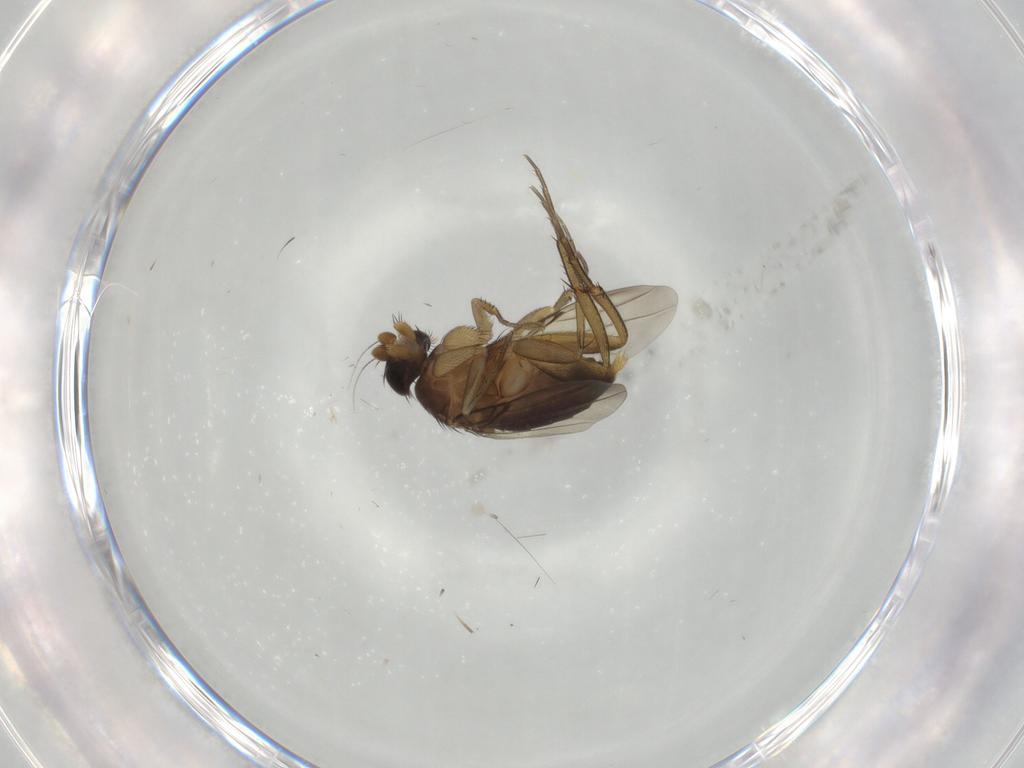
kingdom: Animalia
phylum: Arthropoda
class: Insecta
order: Diptera
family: Phoridae
